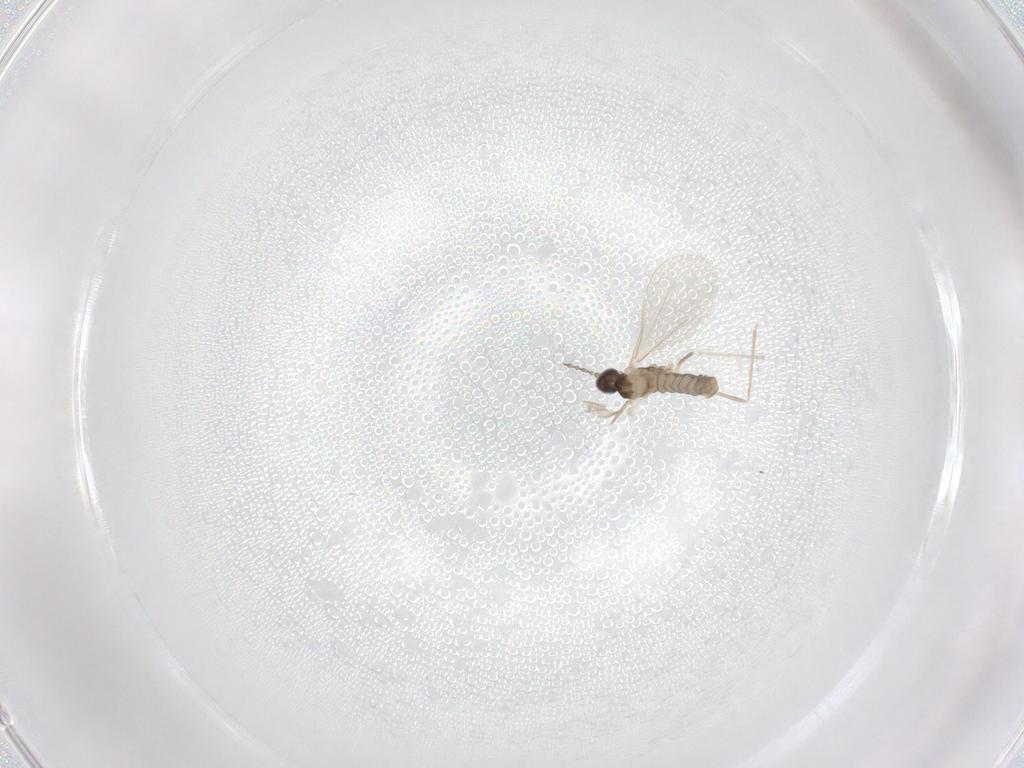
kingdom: Animalia
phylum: Arthropoda
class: Insecta
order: Diptera
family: Cecidomyiidae
